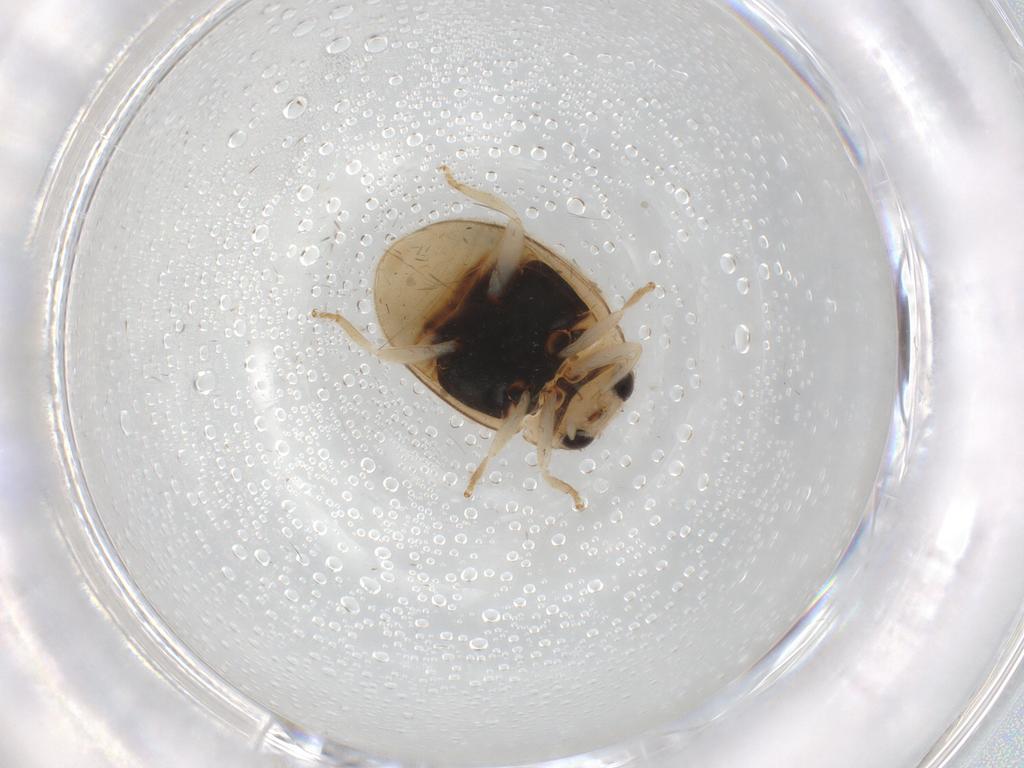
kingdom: Animalia
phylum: Arthropoda
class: Insecta
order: Coleoptera
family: Coccinellidae
